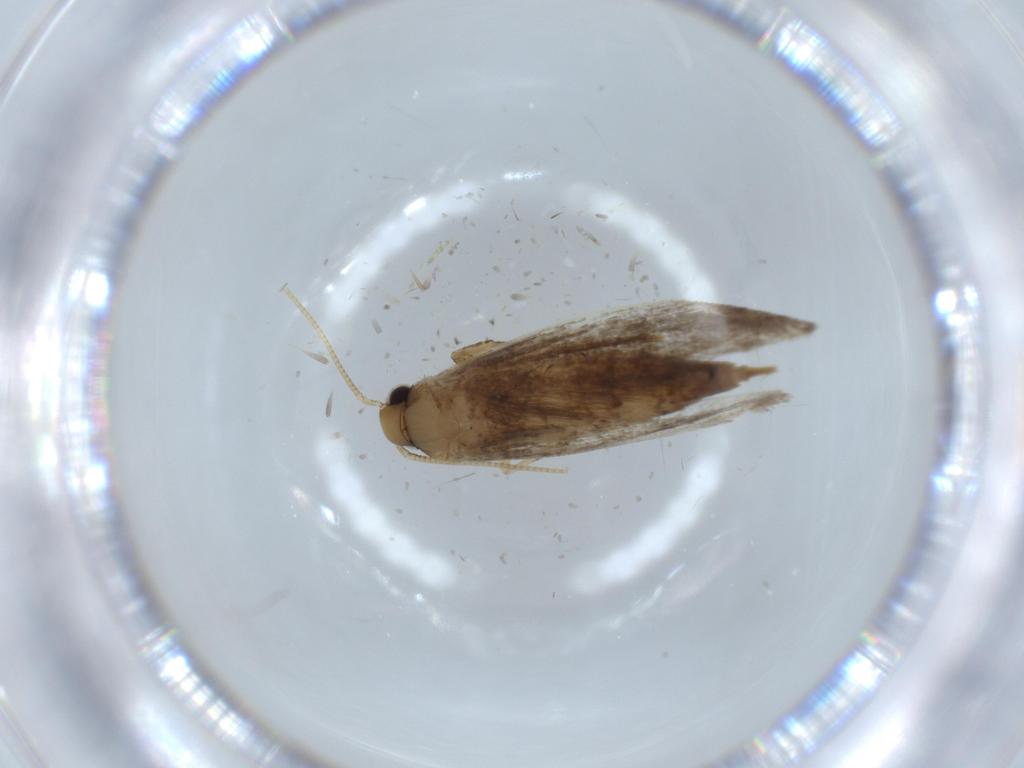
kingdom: Animalia
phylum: Arthropoda
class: Insecta
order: Lepidoptera
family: Tineidae
